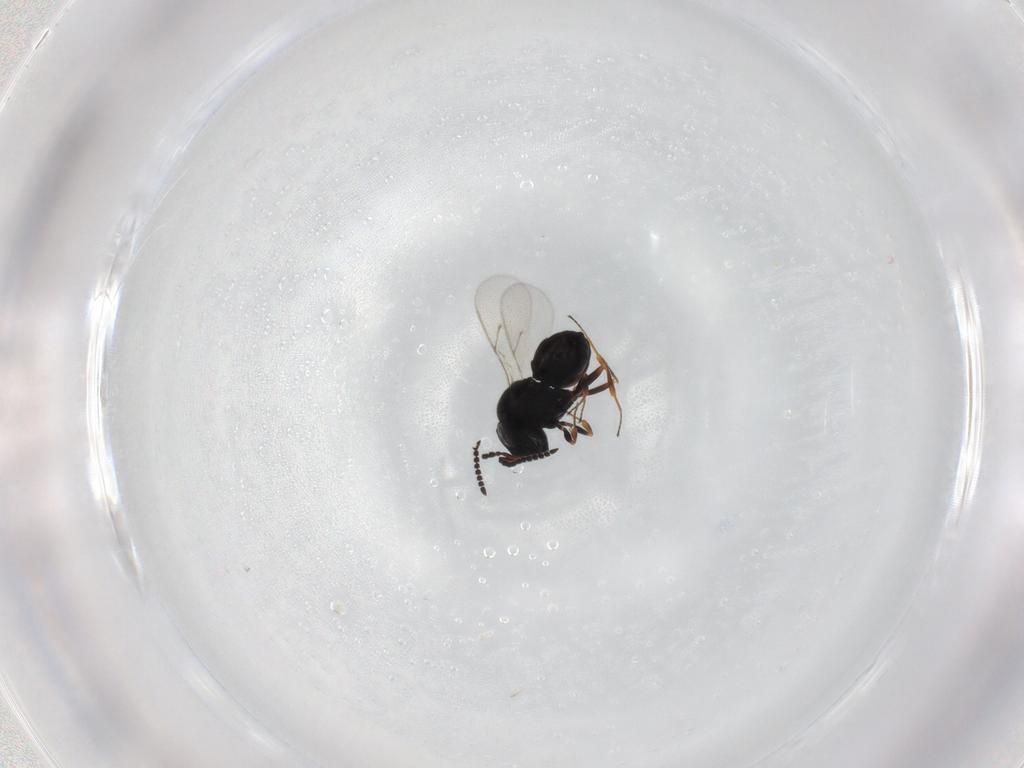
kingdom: Animalia
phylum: Arthropoda
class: Insecta
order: Hymenoptera
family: Scelionidae
